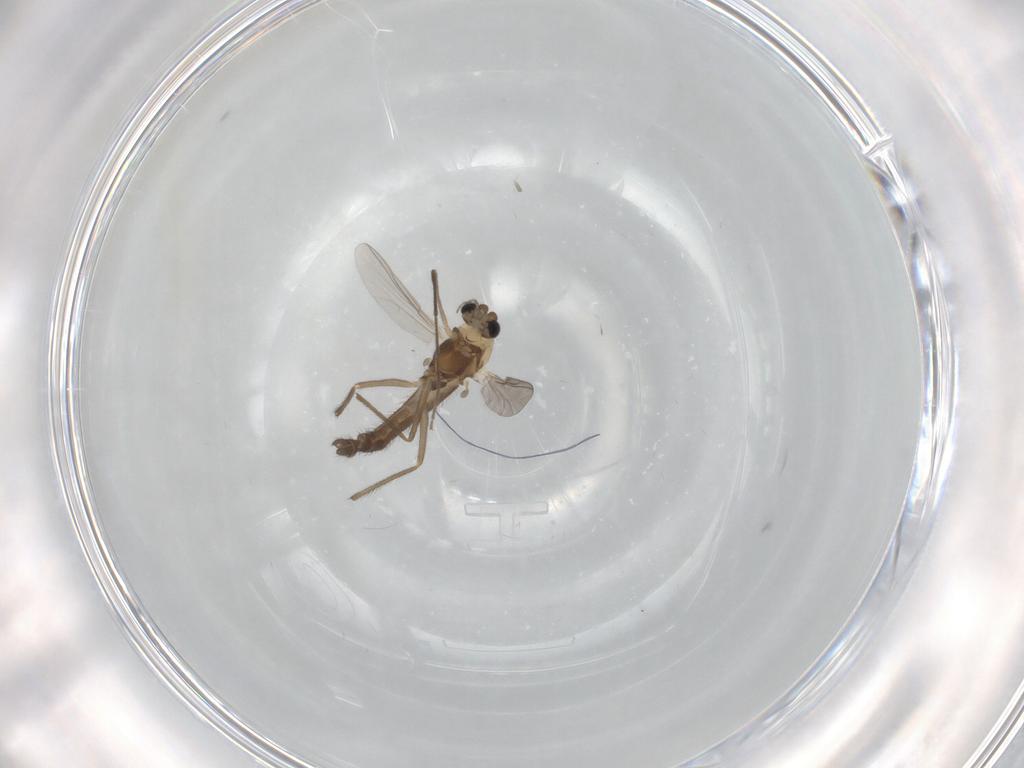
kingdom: Animalia
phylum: Arthropoda
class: Insecta
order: Diptera
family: Chironomidae
